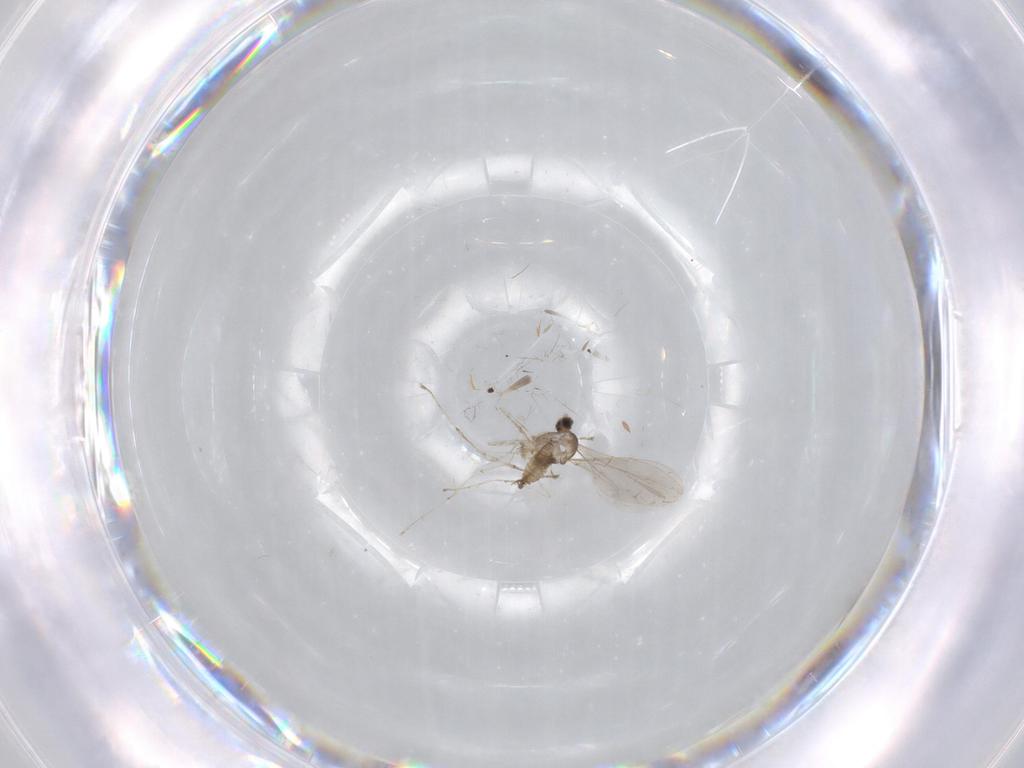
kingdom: Animalia
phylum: Arthropoda
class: Insecta
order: Diptera
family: Cecidomyiidae
